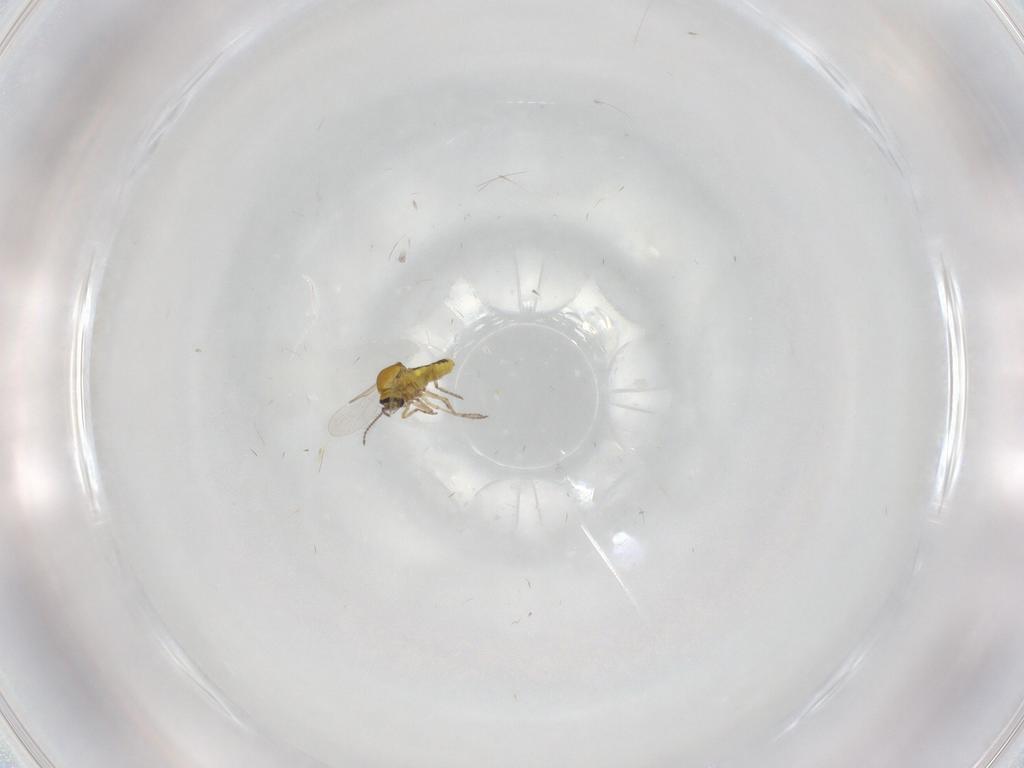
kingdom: Animalia
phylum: Arthropoda
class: Insecta
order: Diptera
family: Ceratopogonidae
